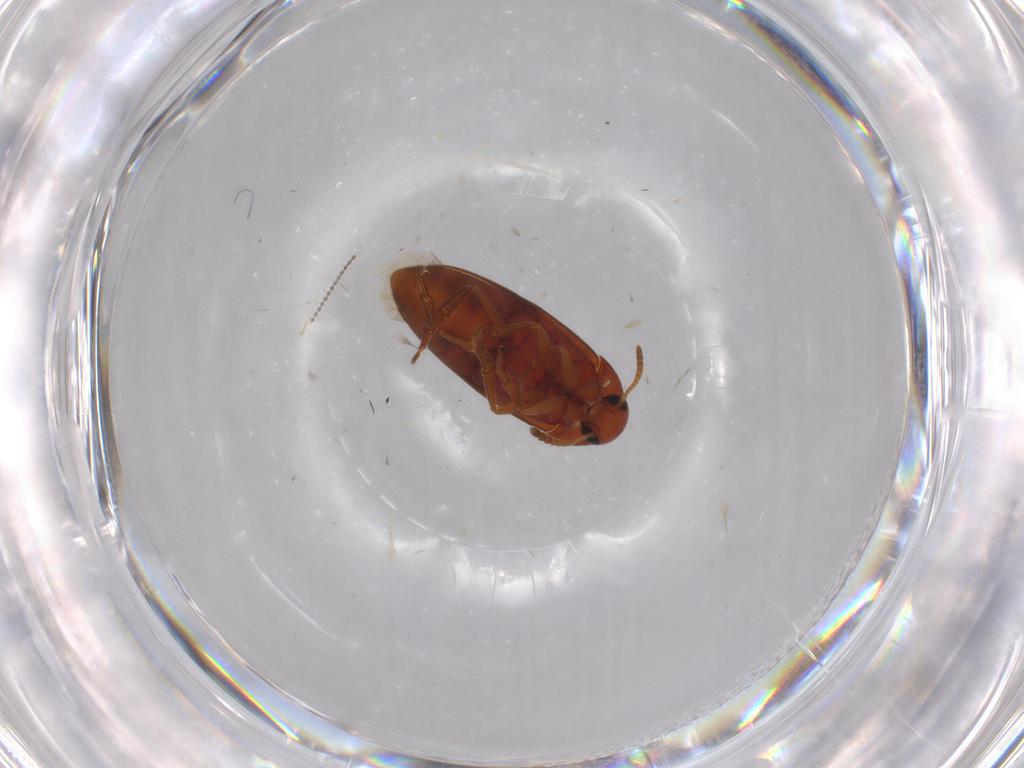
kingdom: Animalia
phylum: Arthropoda
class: Insecta
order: Coleoptera
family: Scraptiidae
